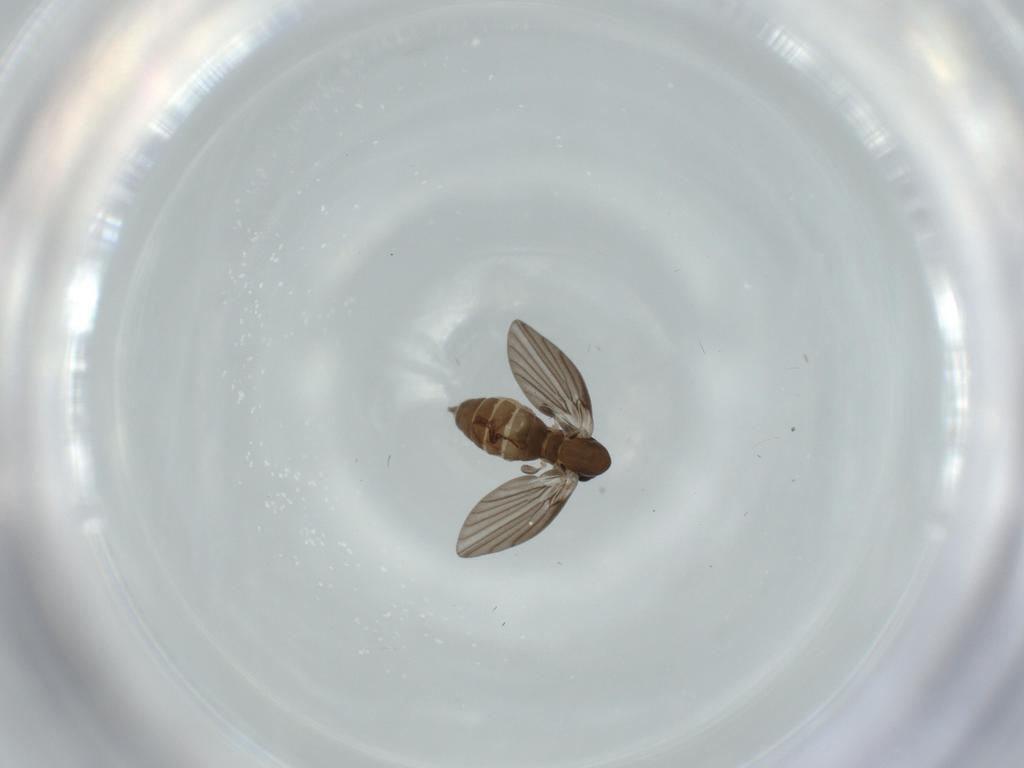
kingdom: Animalia
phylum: Arthropoda
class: Insecta
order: Diptera
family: Psychodidae
